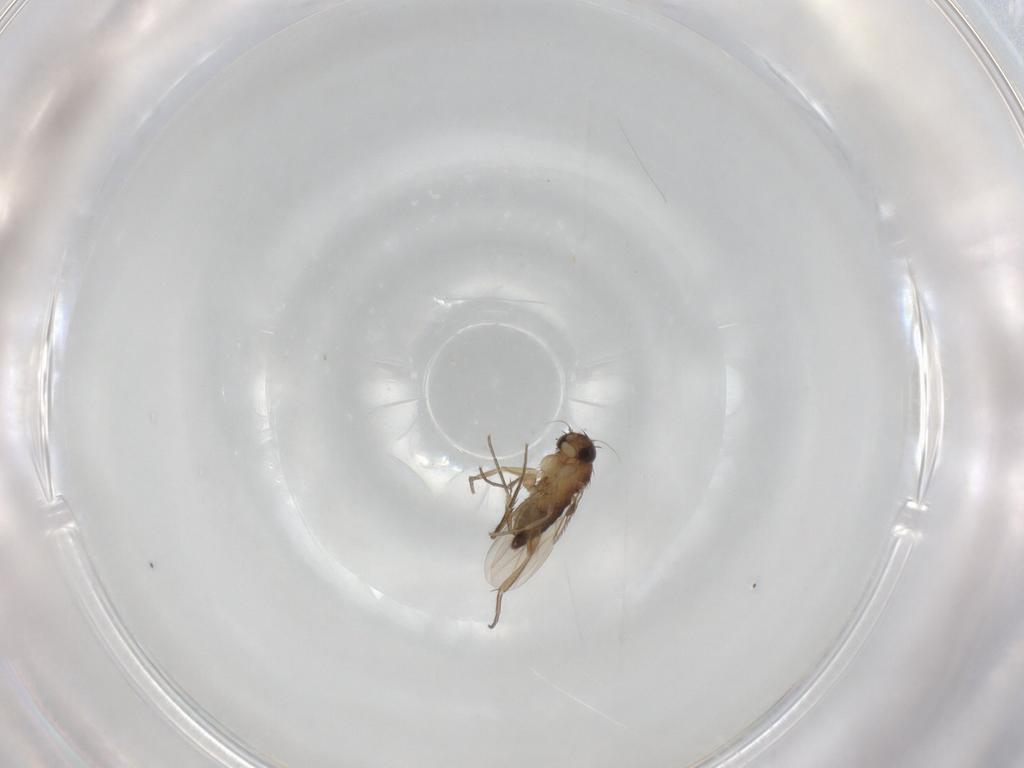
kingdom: Animalia
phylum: Arthropoda
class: Insecta
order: Diptera
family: Phoridae
